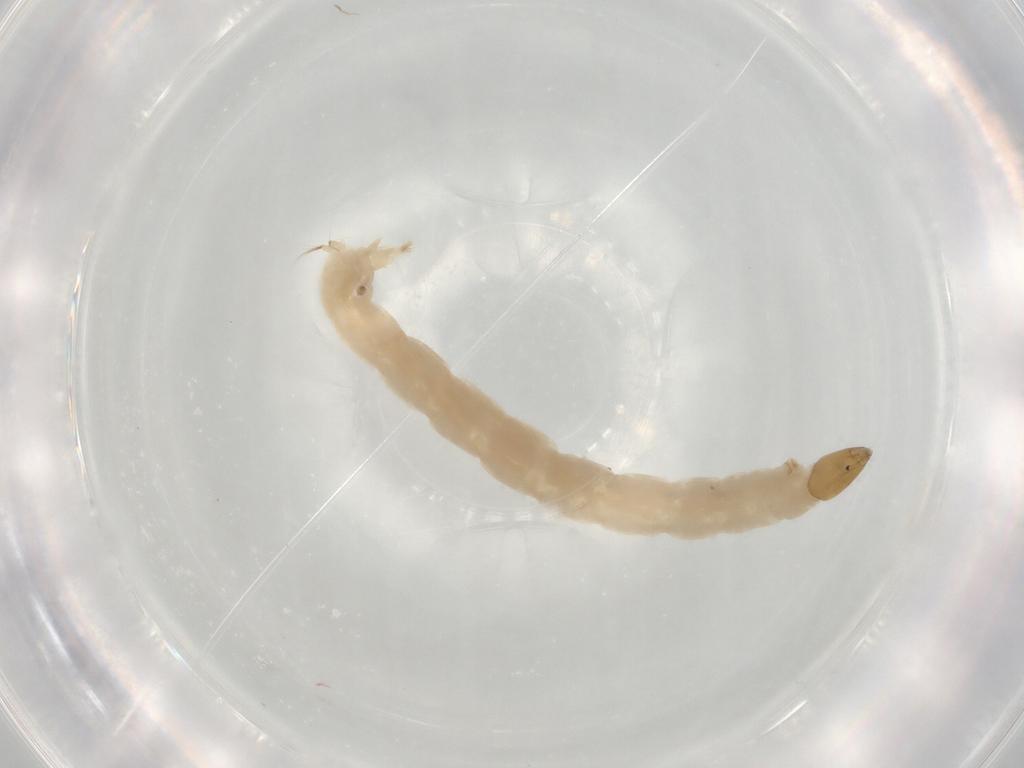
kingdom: Animalia
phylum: Arthropoda
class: Insecta
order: Diptera
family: Chironomidae
